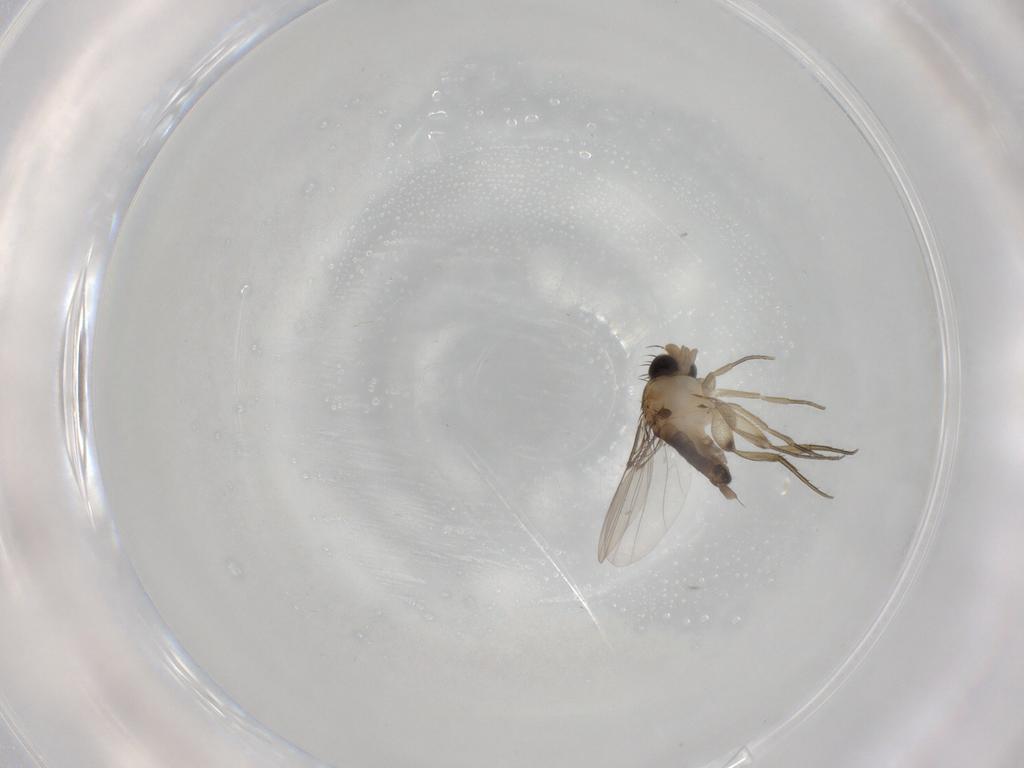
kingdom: Animalia
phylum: Arthropoda
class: Insecta
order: Diptera
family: Phoridae
